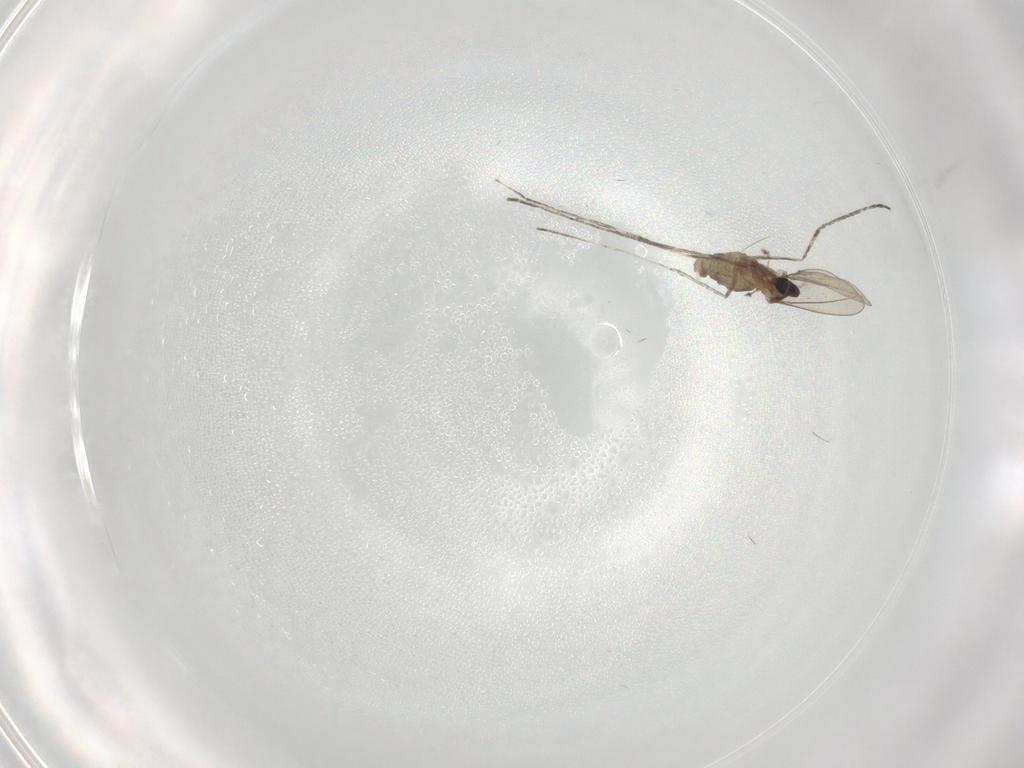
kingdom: Animalia
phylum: Arthropoda
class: Insecta
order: Diptera
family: Cecidomyiidae
